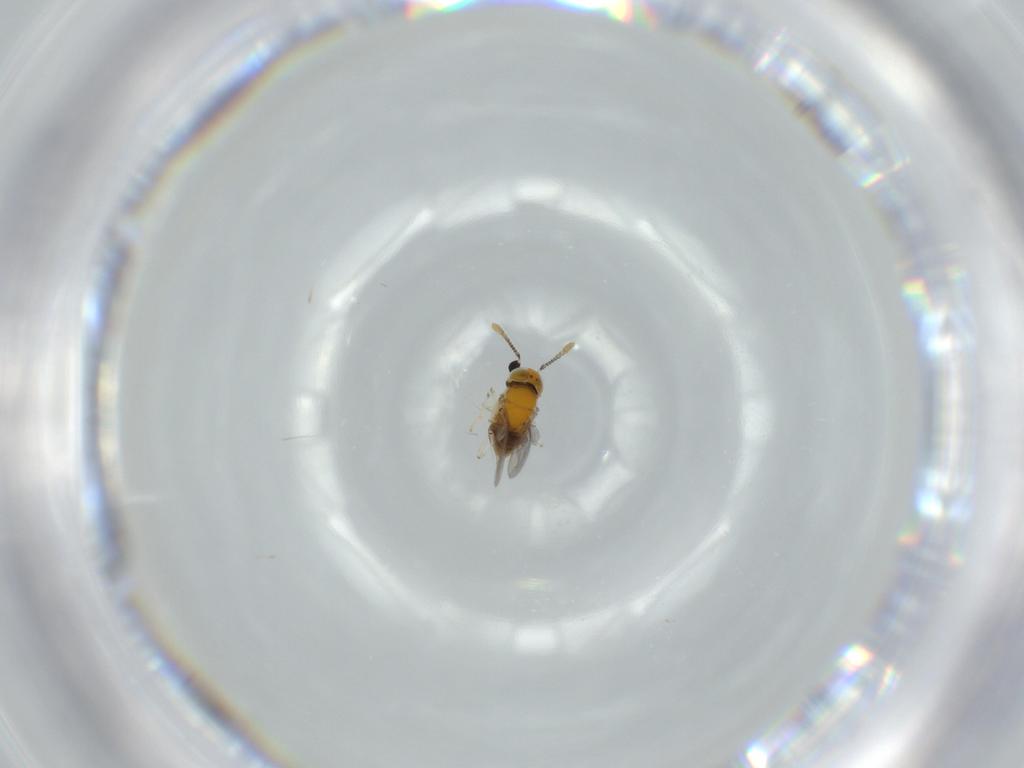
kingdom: Animalia
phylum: Arthropoda
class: Insecta
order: Hymenoptera
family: Encyrtidae
